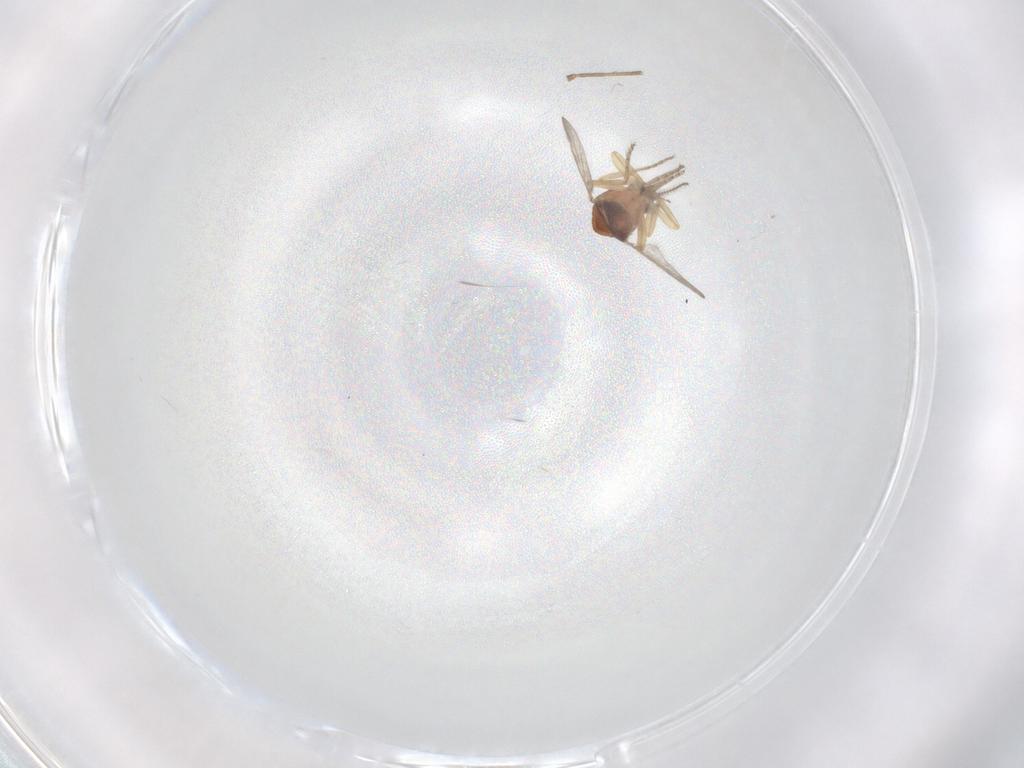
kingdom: Animalia
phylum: Arthropoda
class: Insecta
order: Diptera
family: Ceratopogonidae
